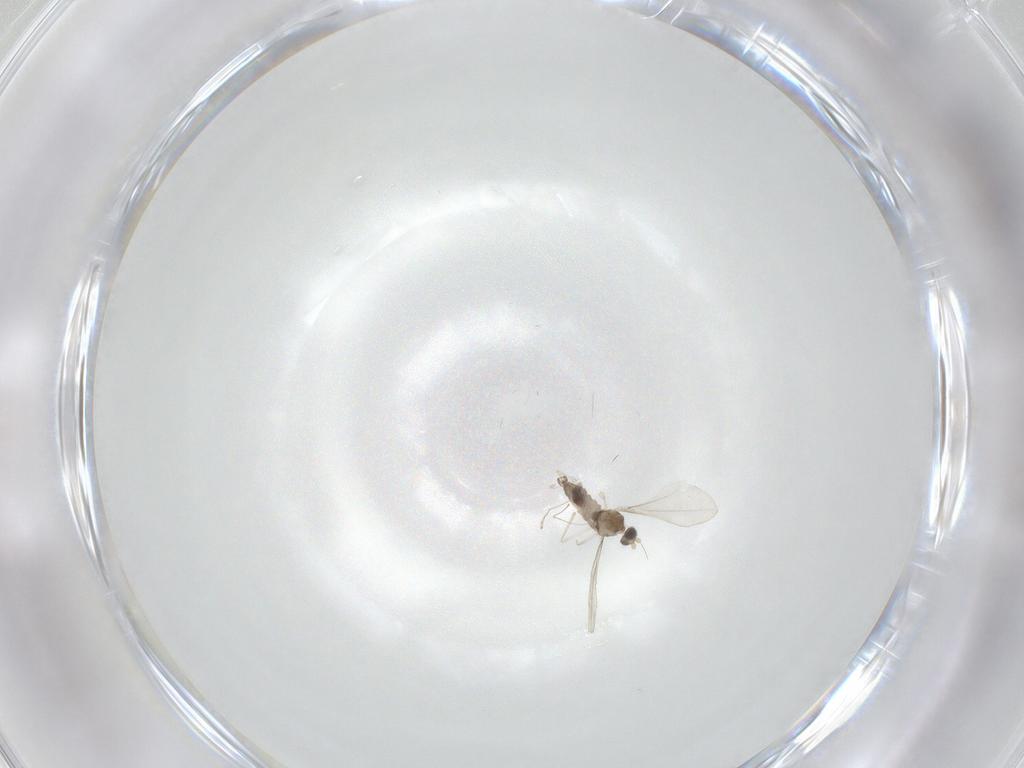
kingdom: Animalia
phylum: Arthropoda
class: Insecta
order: Diptera
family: Cecidomyiidae
